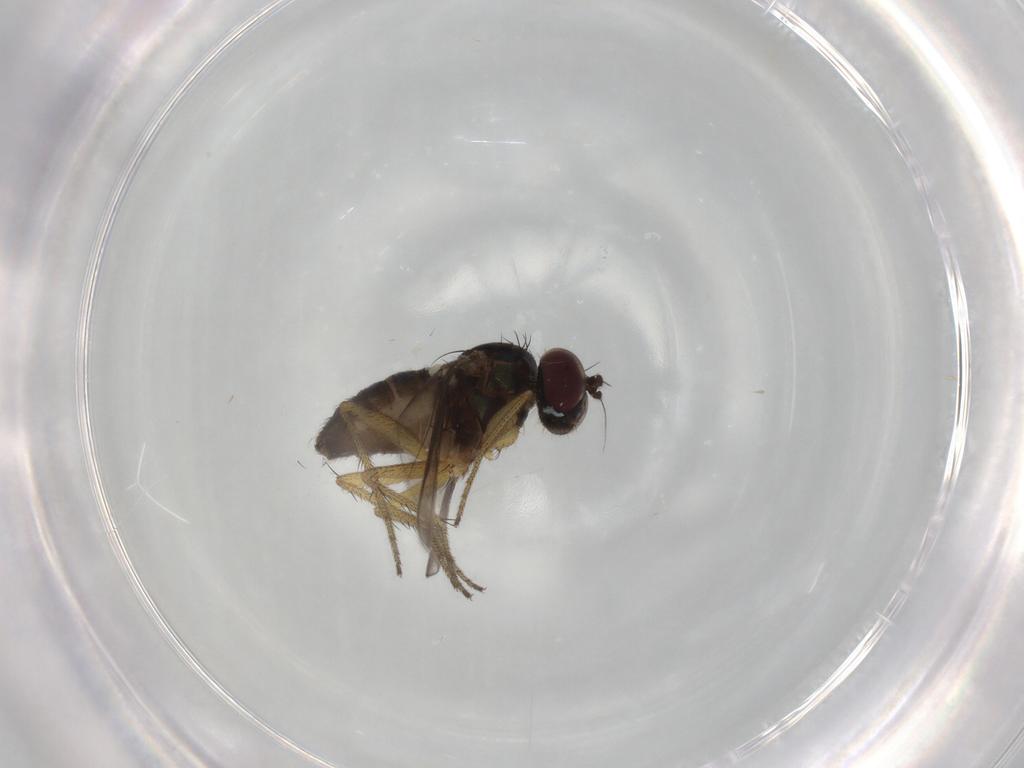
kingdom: Animalia
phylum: Arthropoda
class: Insecta
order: Diptera
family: Dolichopodidae
